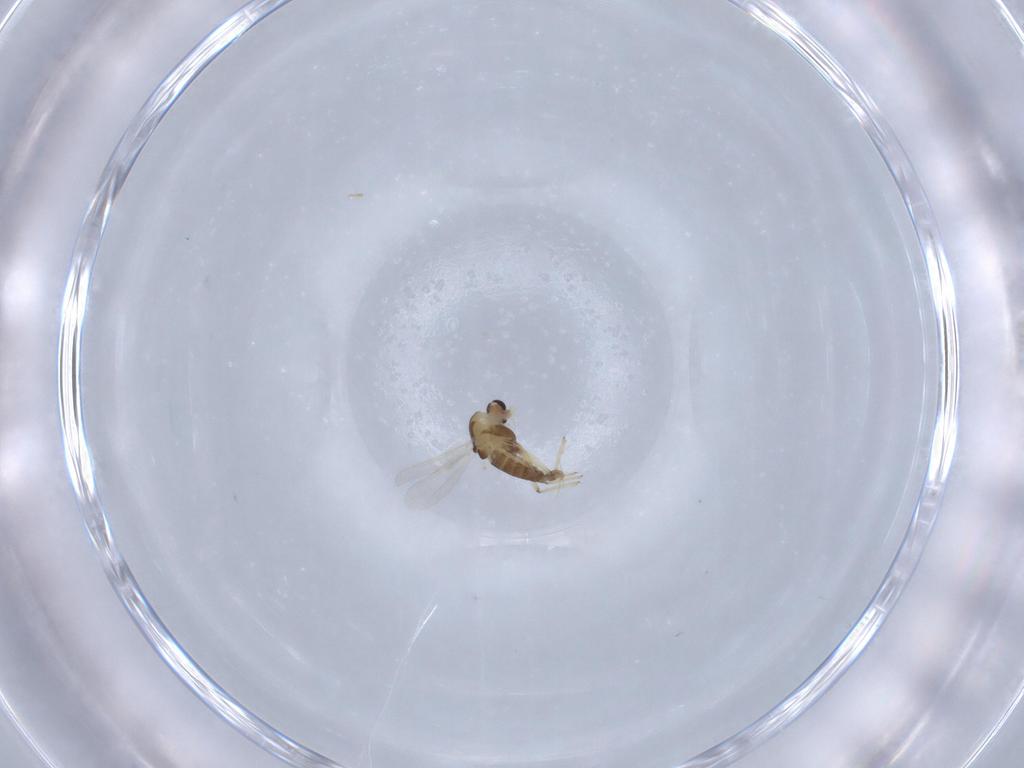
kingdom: Animalia
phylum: Arthropoda
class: Insecta
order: Diptera
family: Chironomidae
